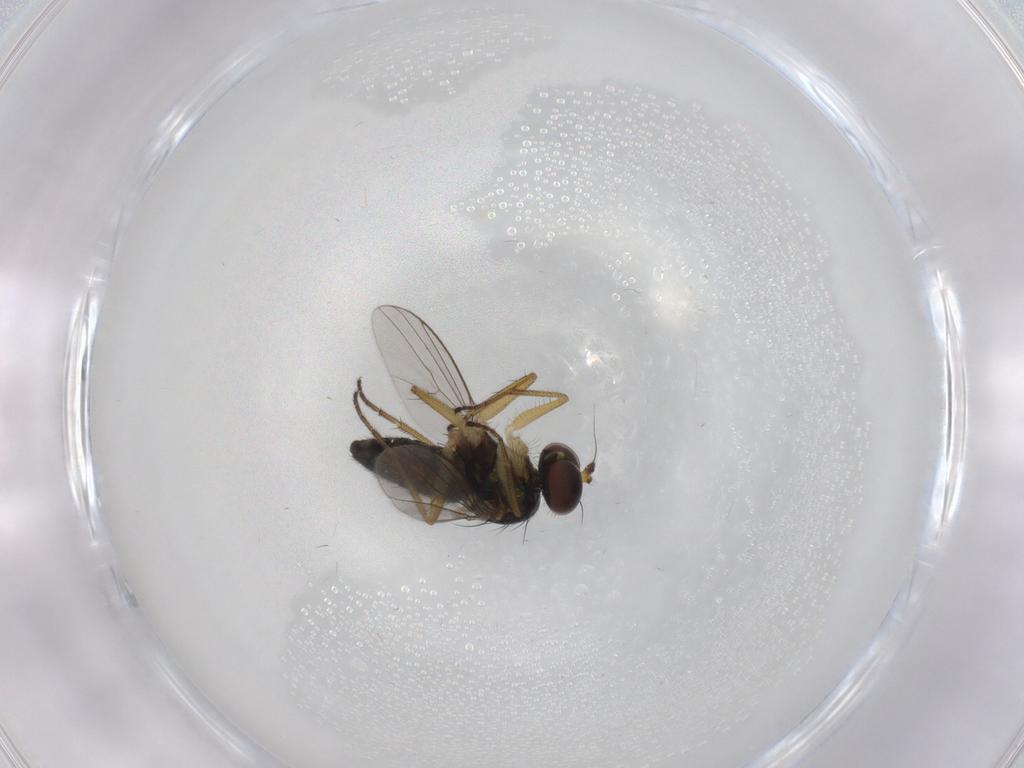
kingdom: Animalia
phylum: Arthropoda
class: Insecta
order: Diptera
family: Dolichopodidae
